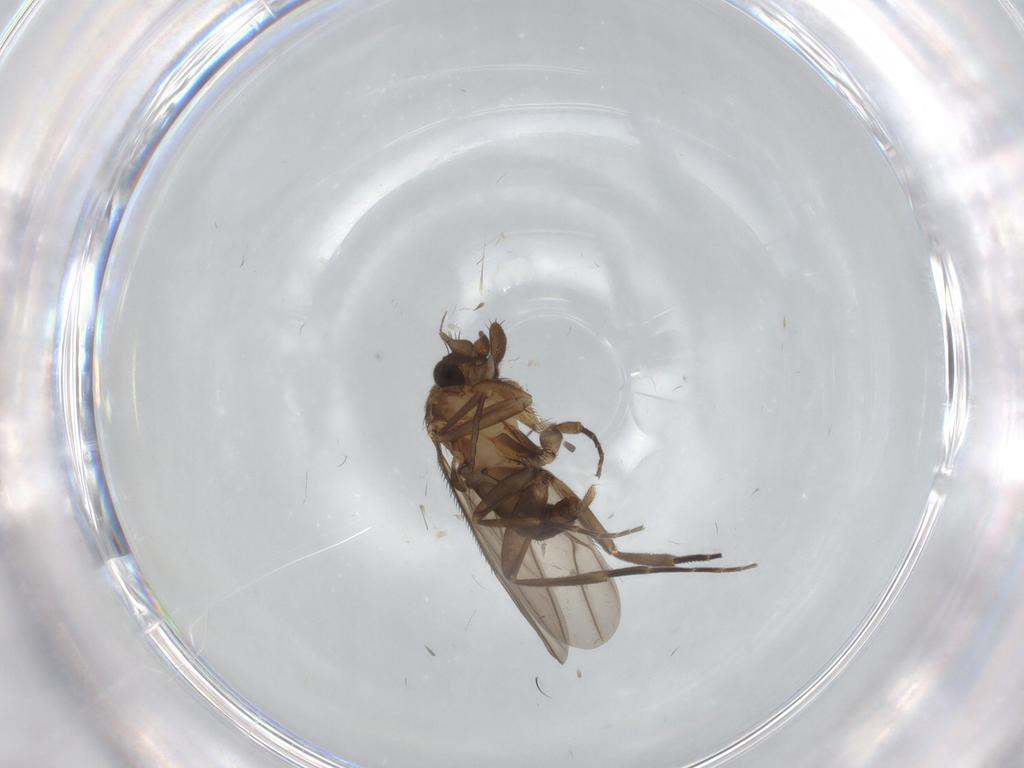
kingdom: Animalia
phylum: Arthropoda
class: Insecta
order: Diptera
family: Phoridae
